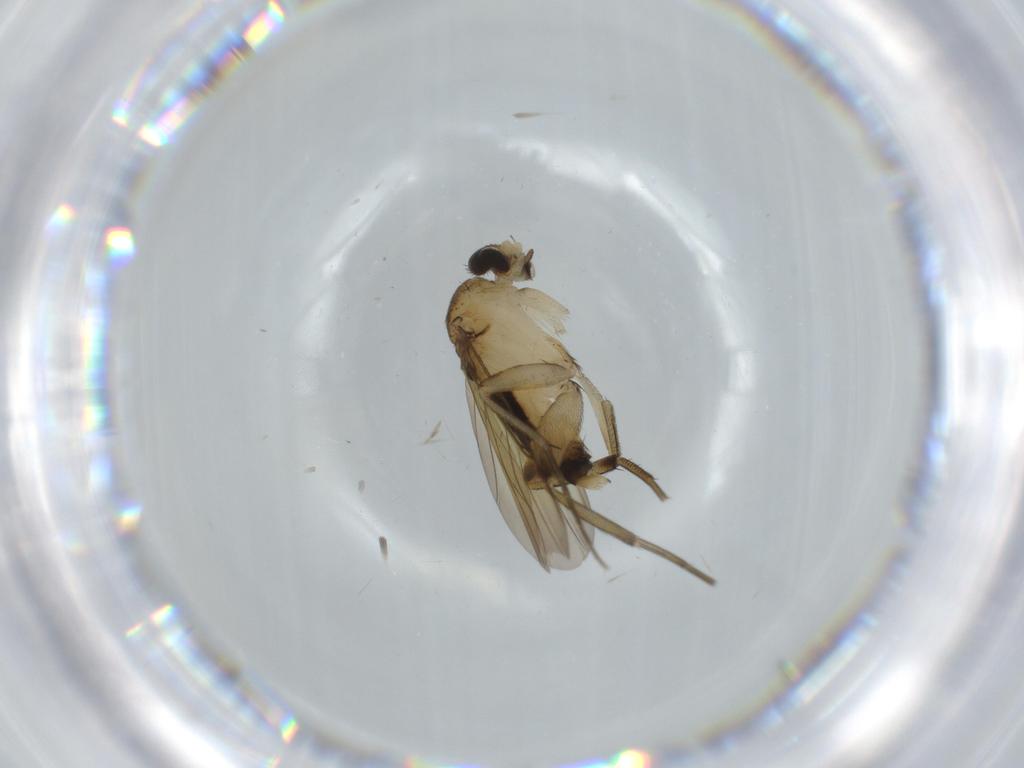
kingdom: Animalia
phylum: Arthropoda
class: Insecta
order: Diptera
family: Phoridae
